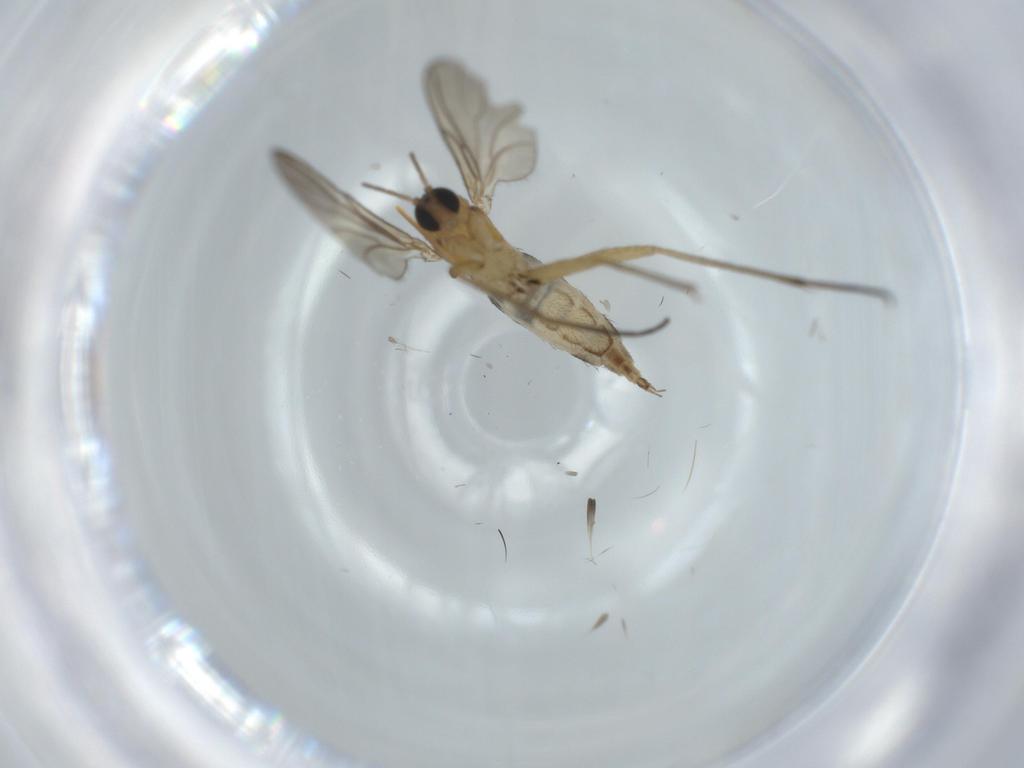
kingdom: Animalia
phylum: Arthropoda
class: Insecta
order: Diptera
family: Sciaridae
